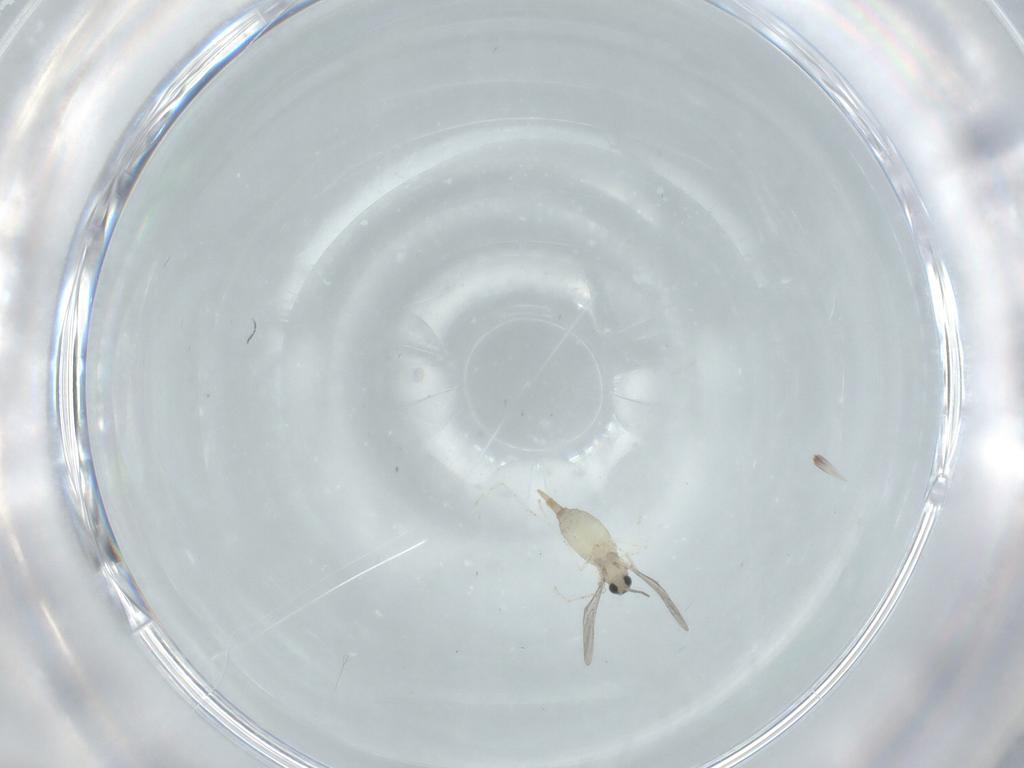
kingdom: Animalia
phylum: Arthropoda
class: Insecta
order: Diptera
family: Cecidomyiidae
